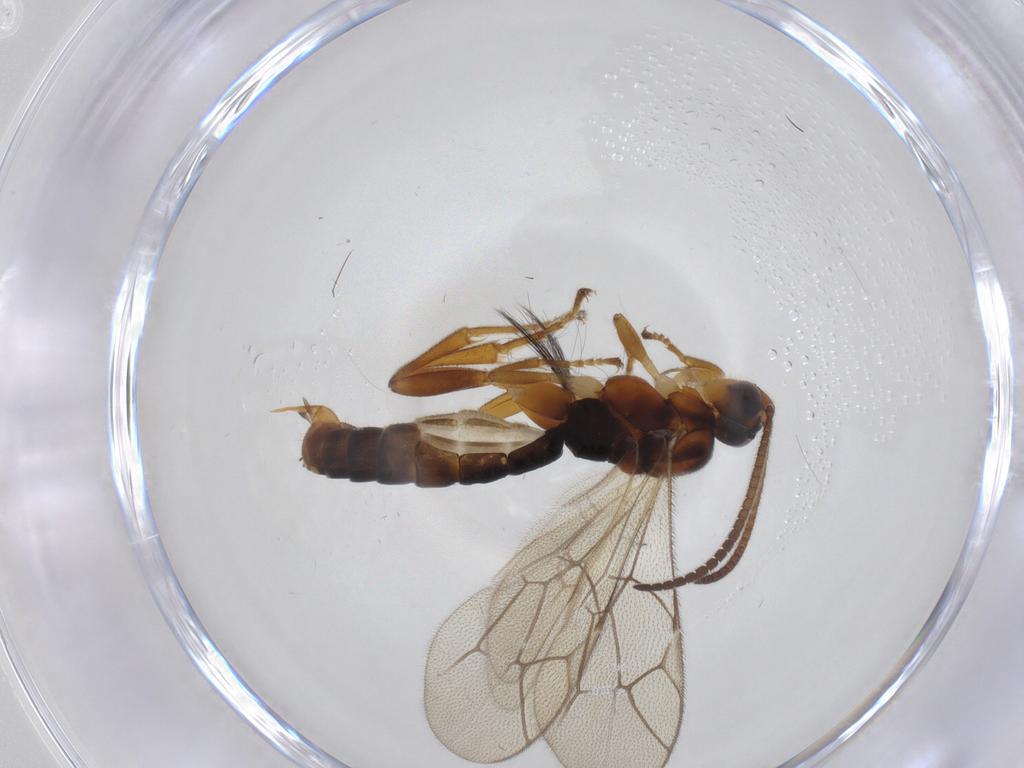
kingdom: Animalia
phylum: Arthropoda
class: Insecta
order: Hymenoptera
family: Ichneumonidae
